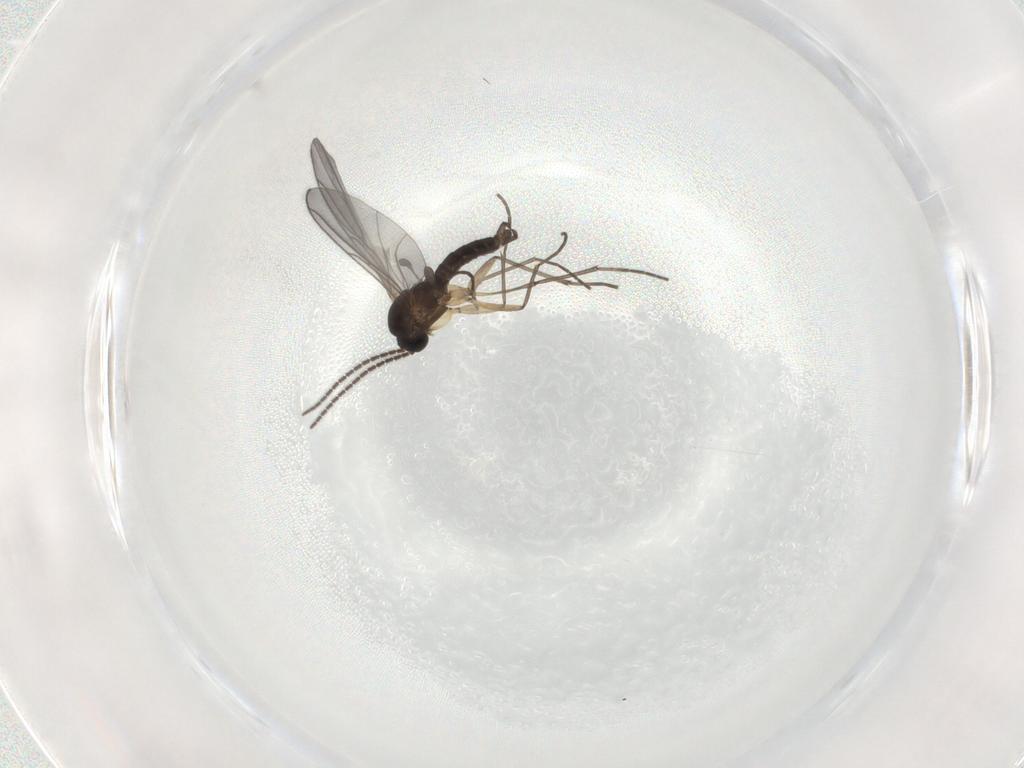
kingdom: Animalia
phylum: Arthropoda
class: Insecta
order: Diptera
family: Sciaridae
